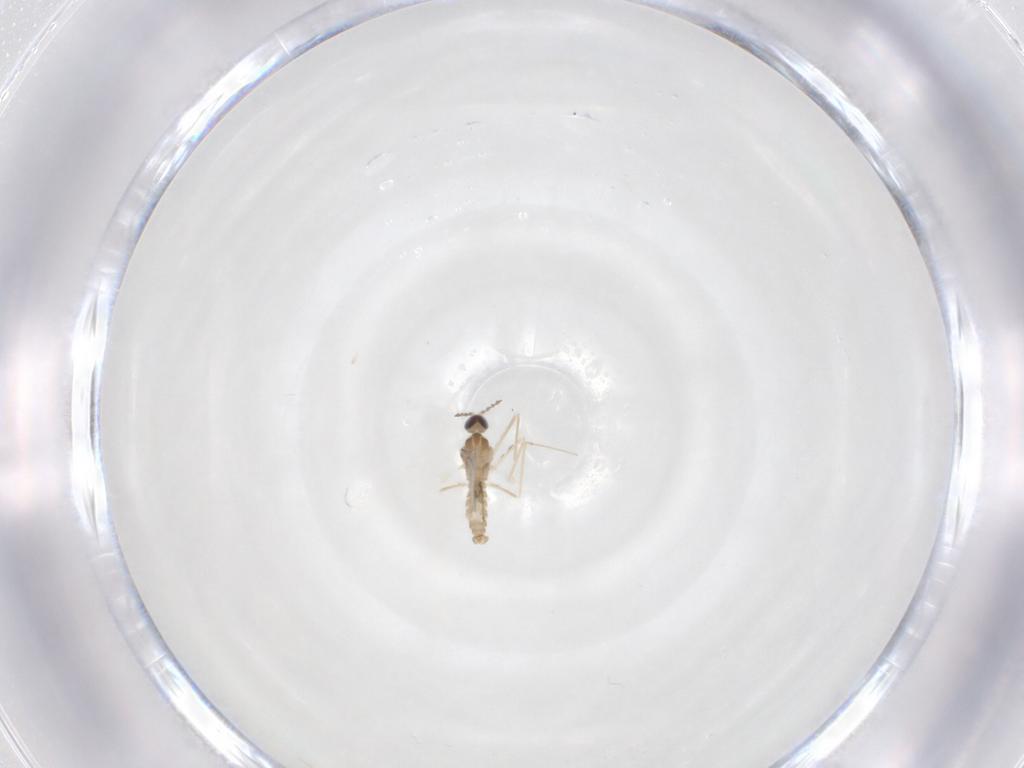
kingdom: Animalia
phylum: Arthropoda
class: Insecta
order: Diptera
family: Cecidomyiidae
